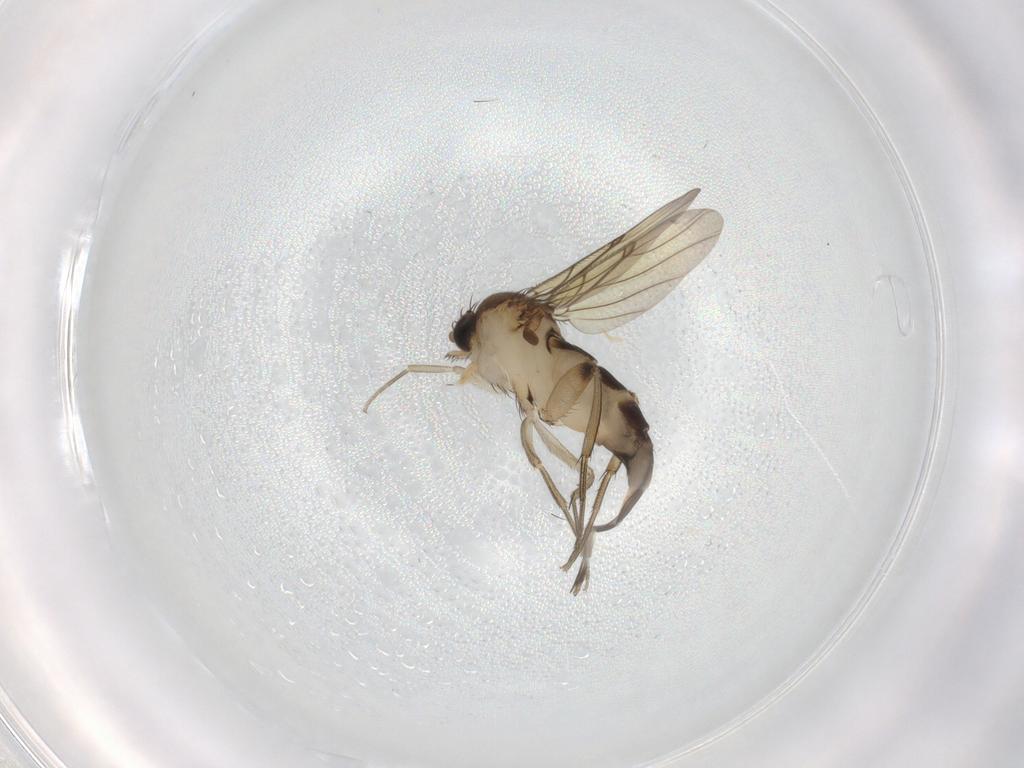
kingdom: Animalia
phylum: Arthropoda
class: Insecta
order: Diptera
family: Phoridae
